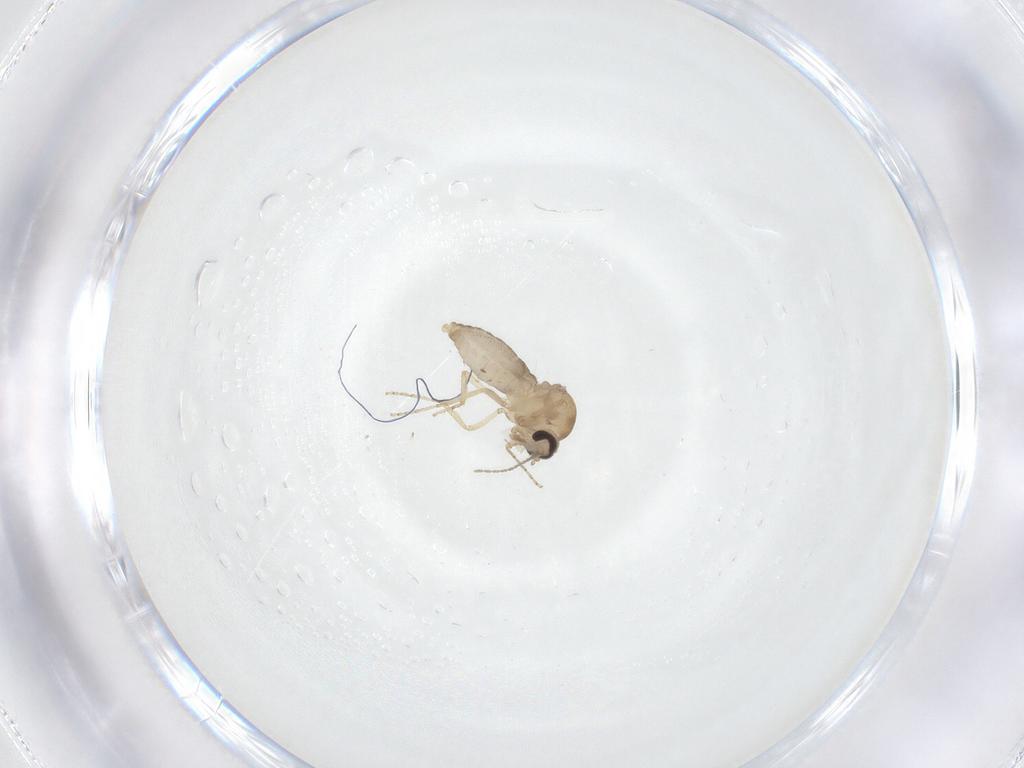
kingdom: Animalia
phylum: Arthropoda
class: Insecta
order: Diptera
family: Ceratopogonidae
